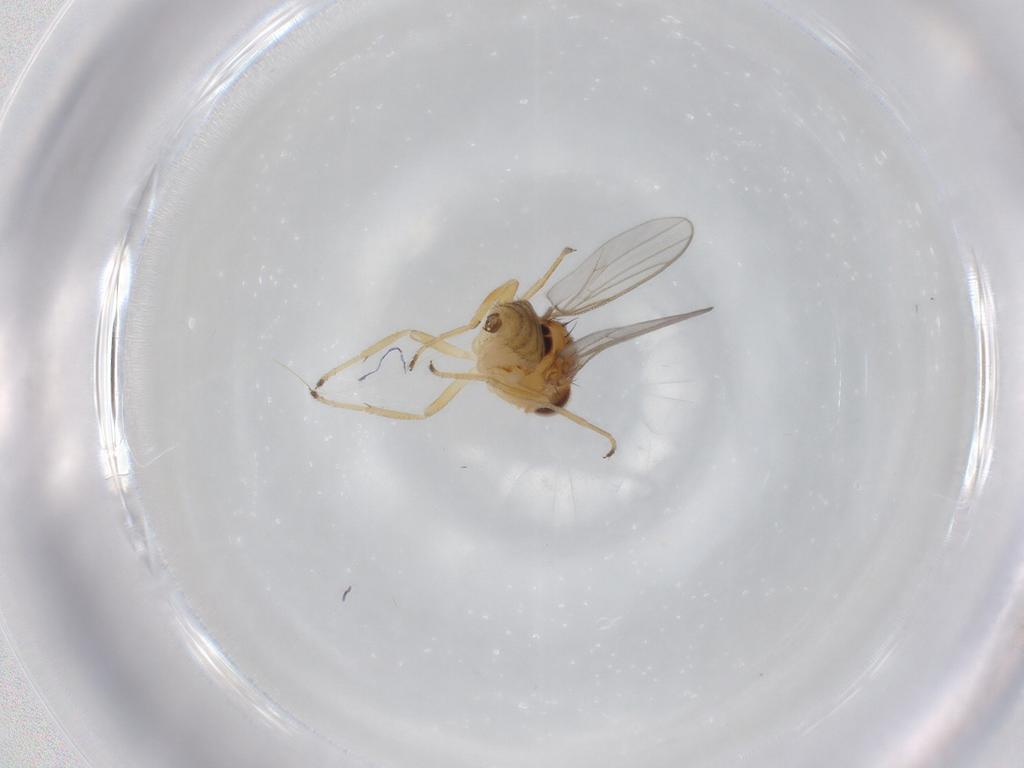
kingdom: Animalia
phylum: Arthropoda
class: Insecta
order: Diptera
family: Chloropidae
